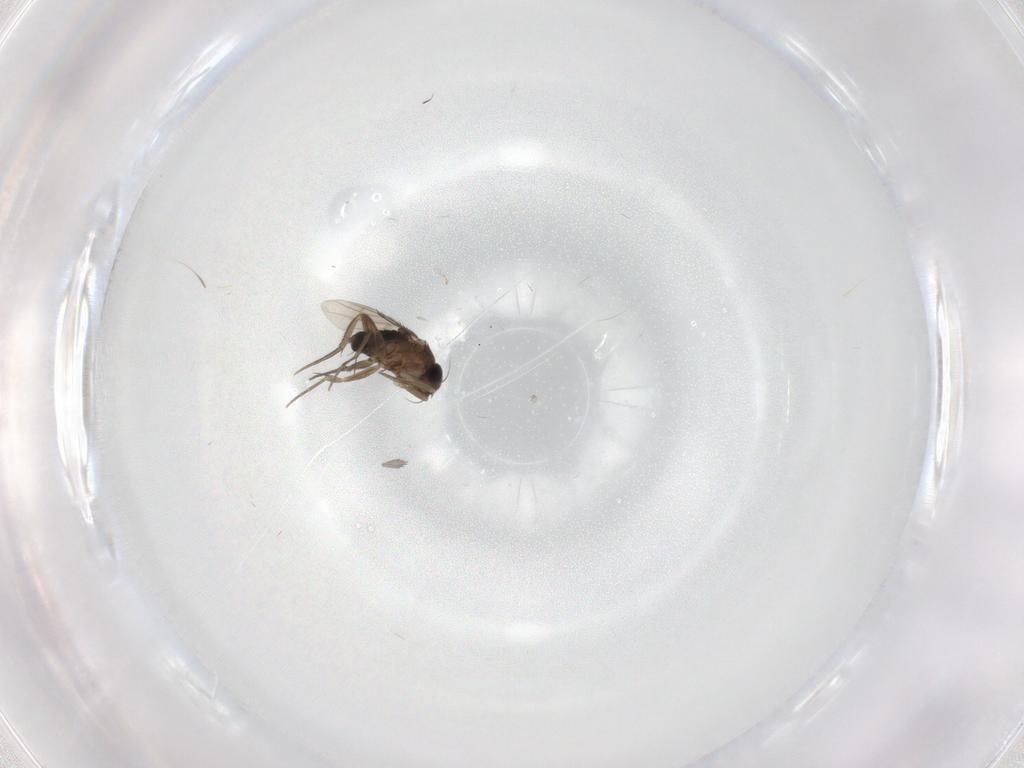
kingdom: Animalia
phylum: Arthropoda
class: Insecta
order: Diptera
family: Phoridae
